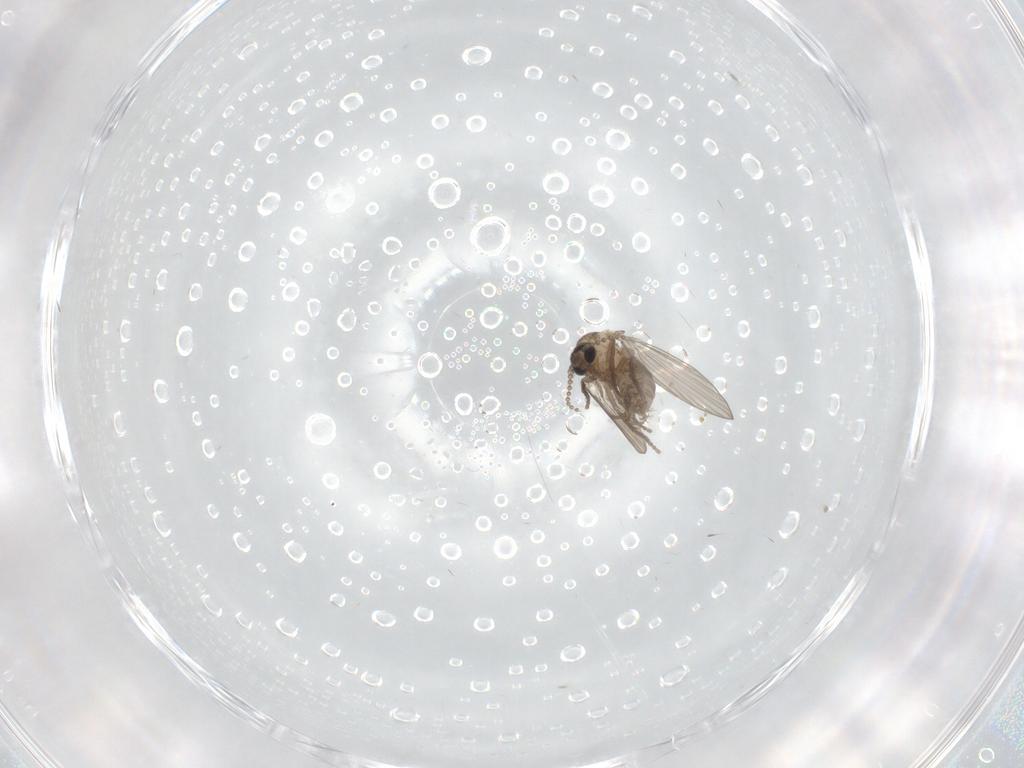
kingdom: Animalia
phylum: Arthropoda
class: Insecta
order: Diptera
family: Psychodidae
